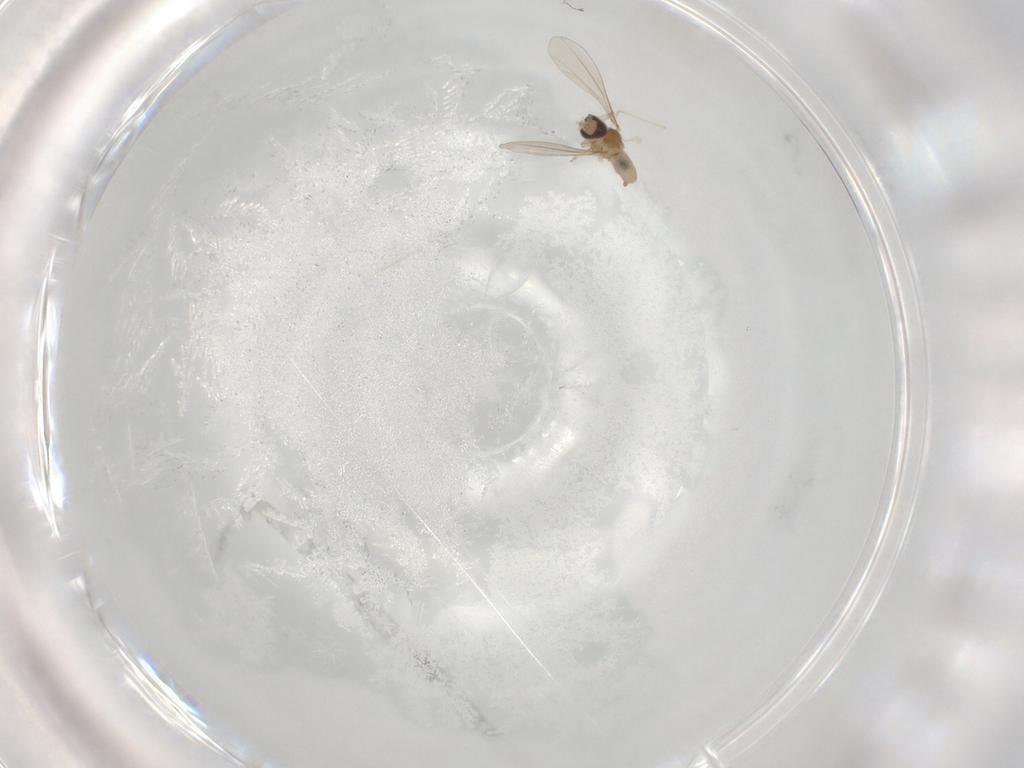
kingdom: Animalia
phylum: Arthropoda
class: Insecta
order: Diptera
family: Cecidomyiidae
